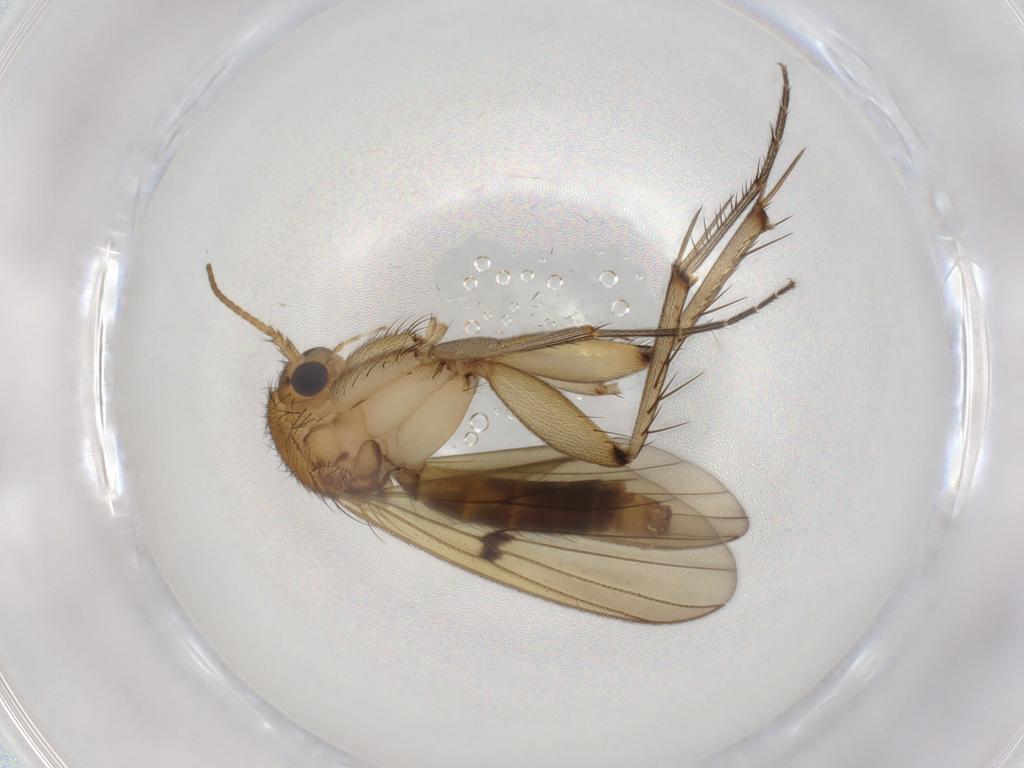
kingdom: Animalia
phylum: Arthropoda
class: Insecta
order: Diptera
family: Mycetophilidae
